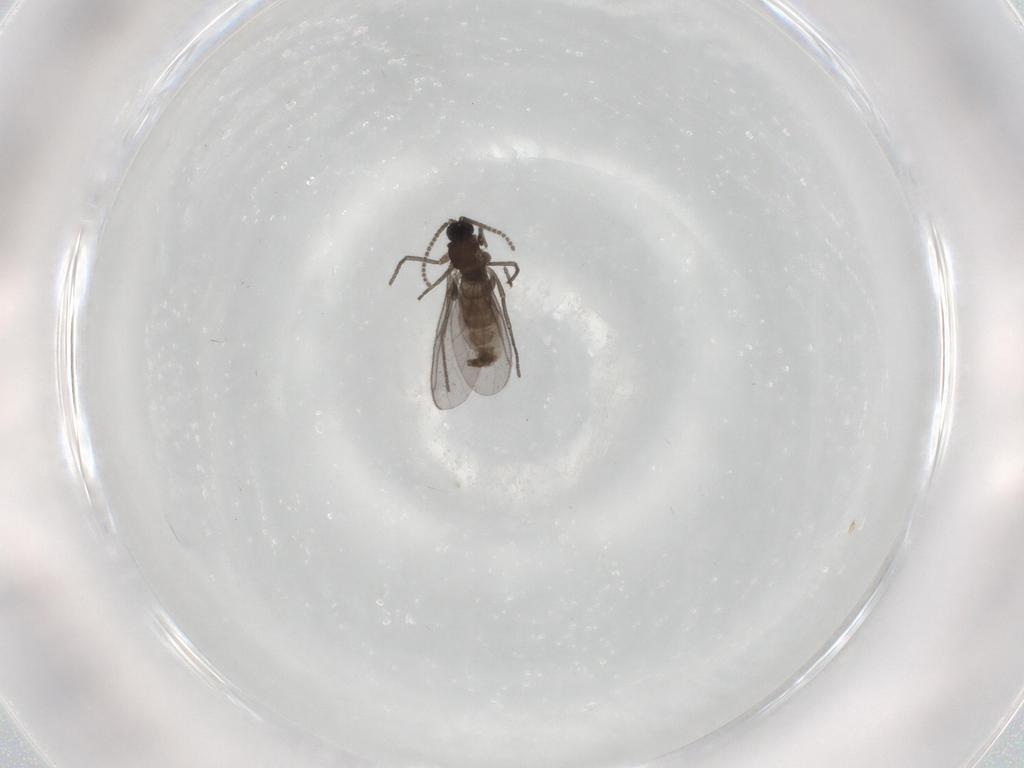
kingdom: Animalia
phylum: Arthropoda
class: Insecta
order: Diptera
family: Cecidomyiidae
